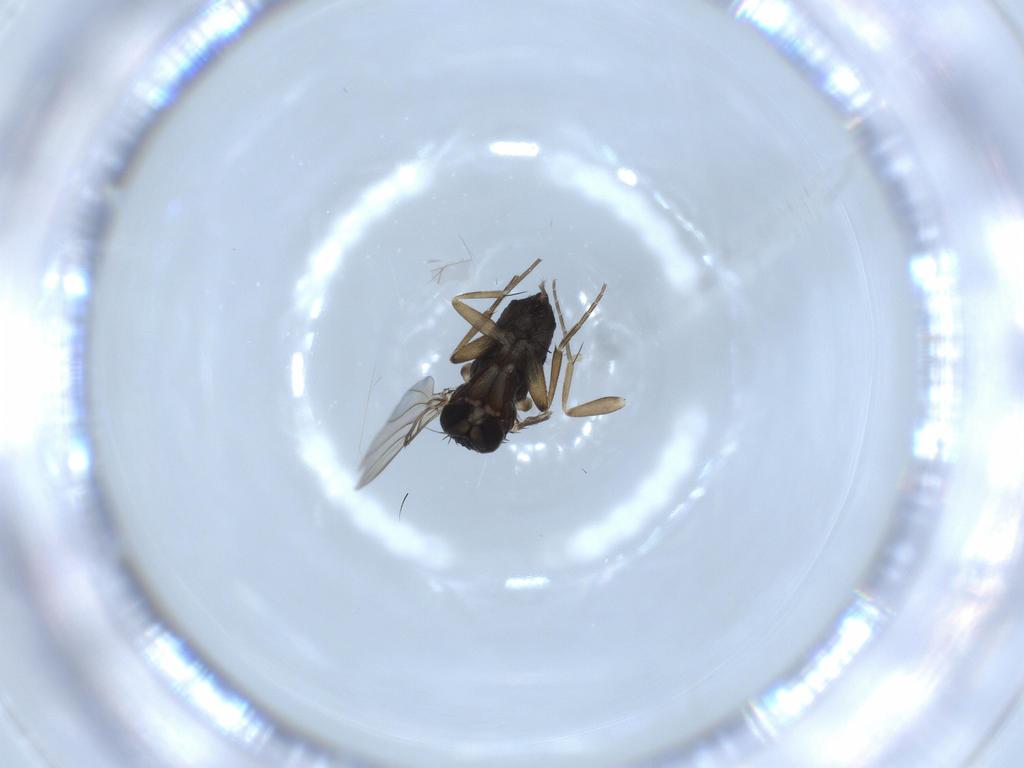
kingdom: Animalia
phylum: Arthropoda
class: Insecta
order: Diptera
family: Phoridae
